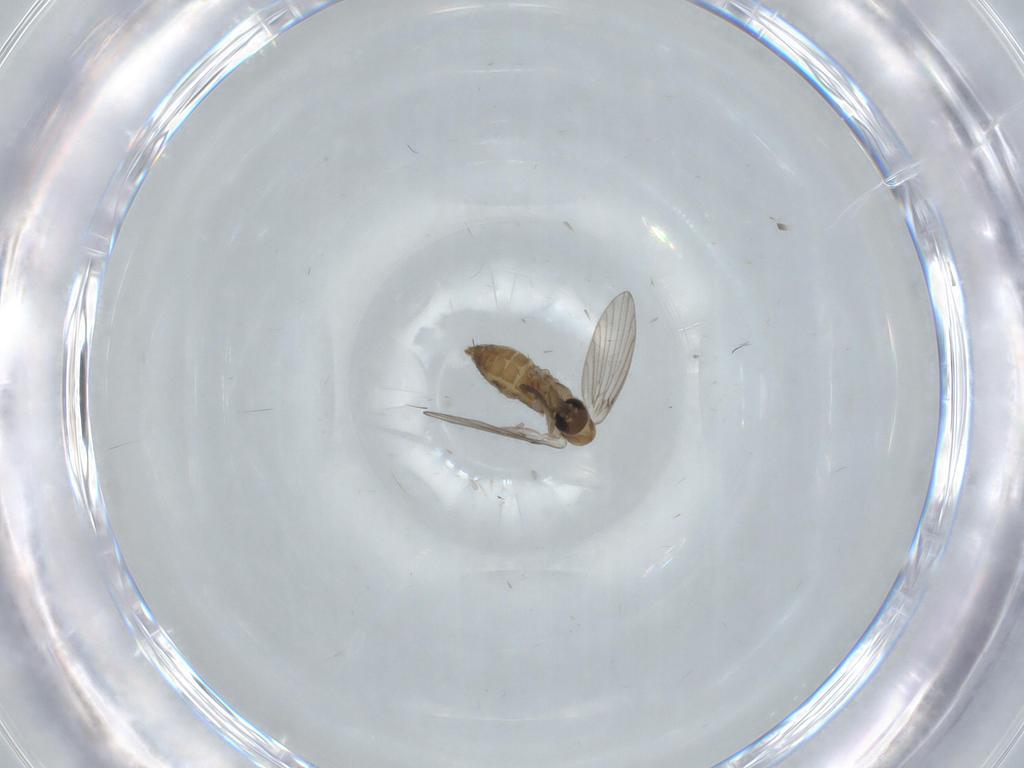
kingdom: Animalia
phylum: Arthropoda
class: Insecta
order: Diptera
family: Psychodidae
